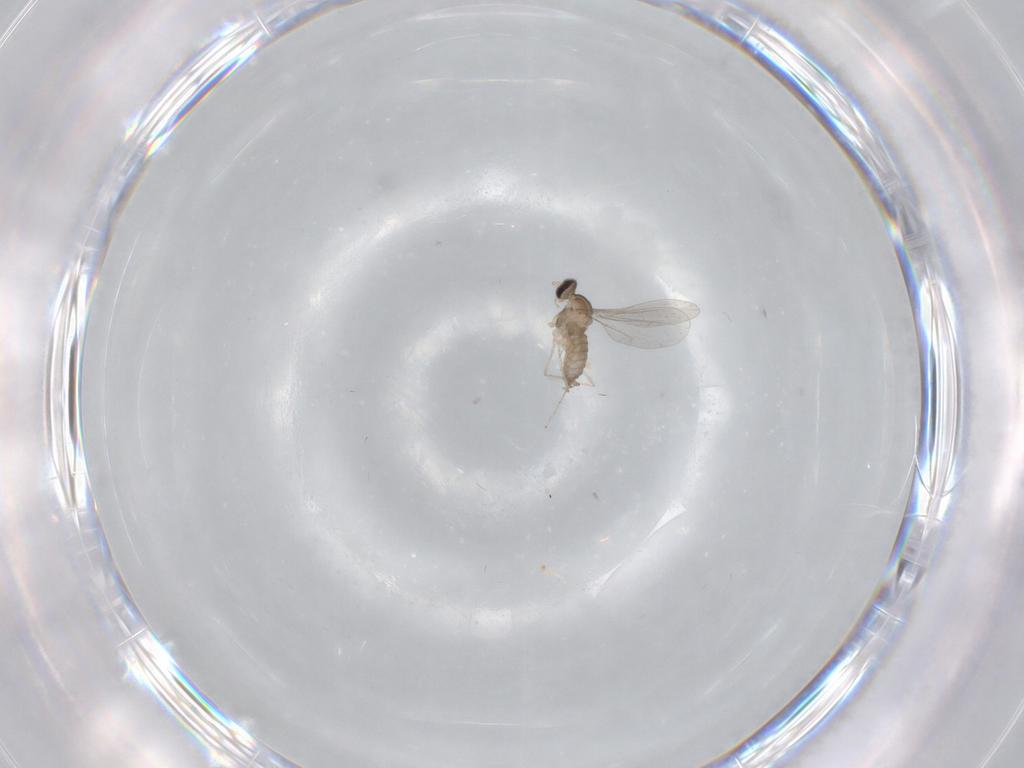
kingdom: Animalia
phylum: Arthropoda
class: Insecta
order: Diptera
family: Cecidomyiidae
